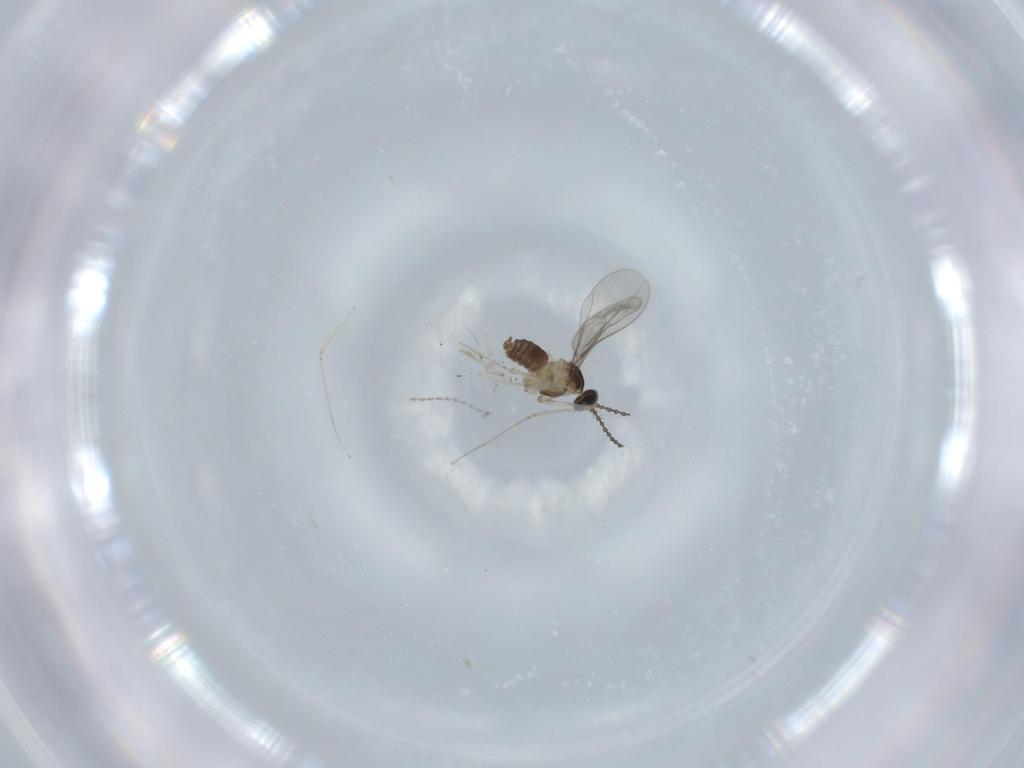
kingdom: Animalia
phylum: Arthropoda
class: Insecta
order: Diptera
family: Cecidomyiidae
